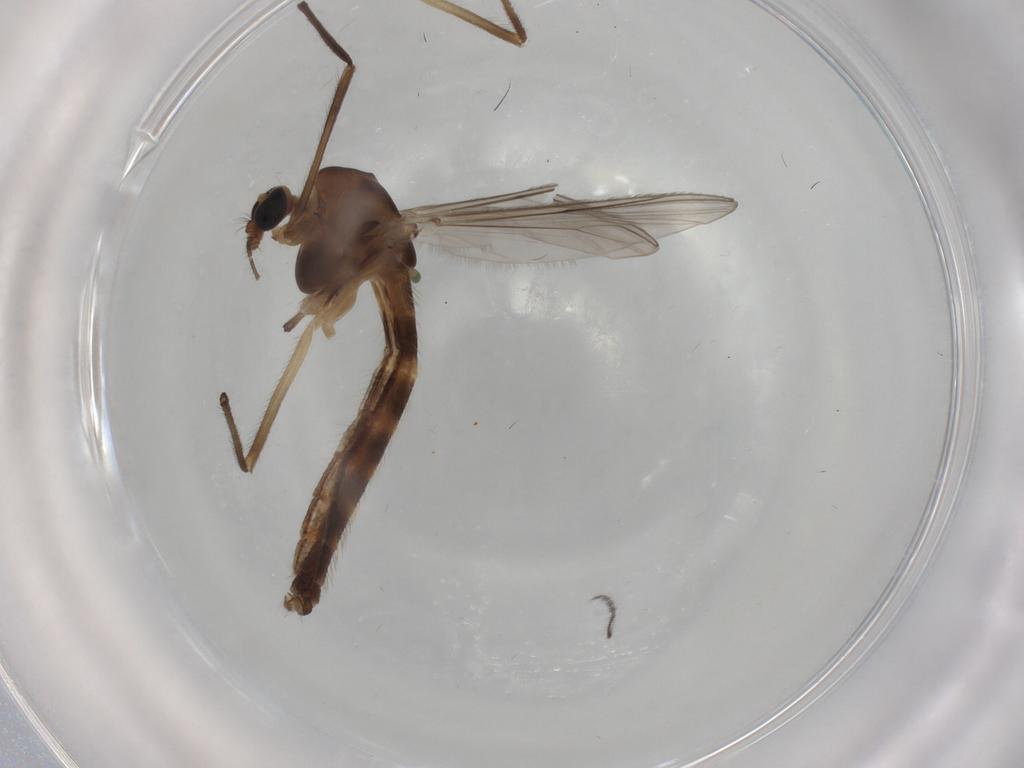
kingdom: Animalia
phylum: Arthropoda
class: Insecta
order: Diptera
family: Chironomidae
